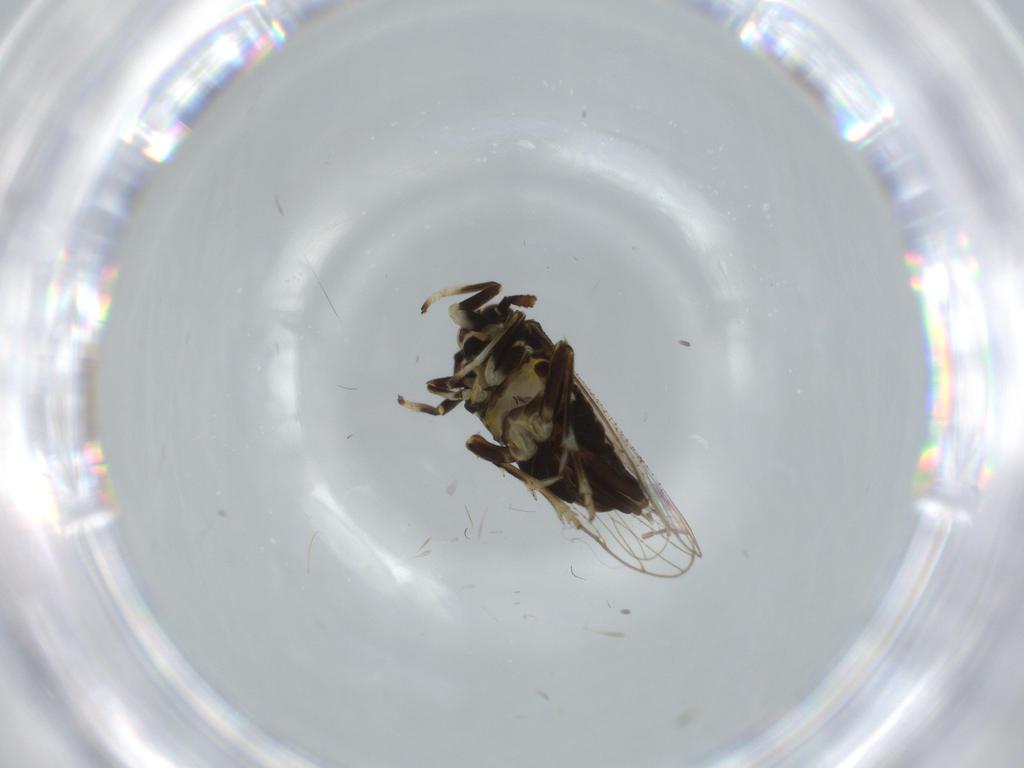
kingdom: Animalia
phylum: Arthropoda
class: Insecta
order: Hemiptera
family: Delphacidae
